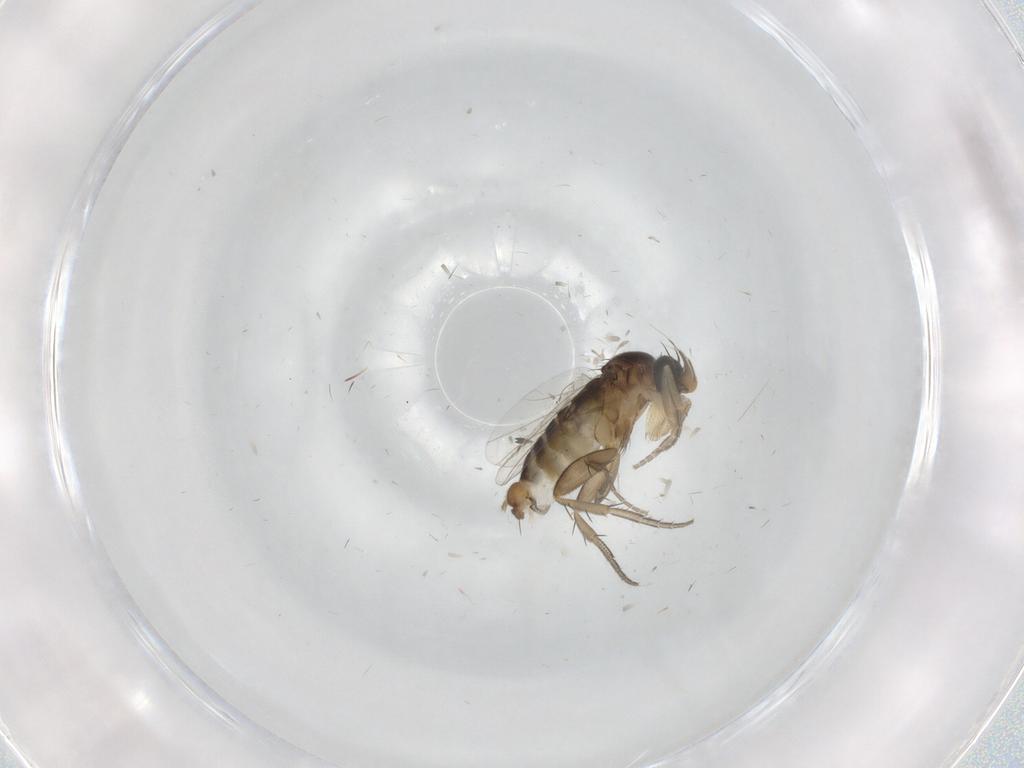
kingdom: Animalia
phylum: Arthropoda
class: Insecta
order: Diptera
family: Phoridae
